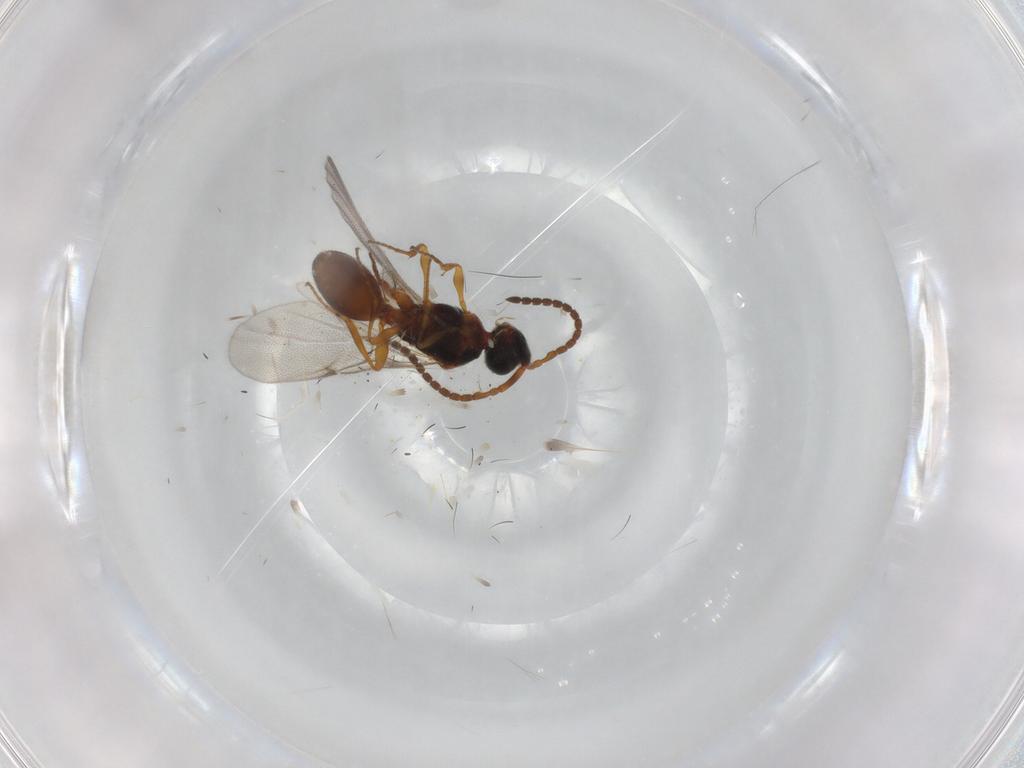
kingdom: Animalia
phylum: Arthropoda
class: Insecta
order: Hymenoptera
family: Diapriidae
